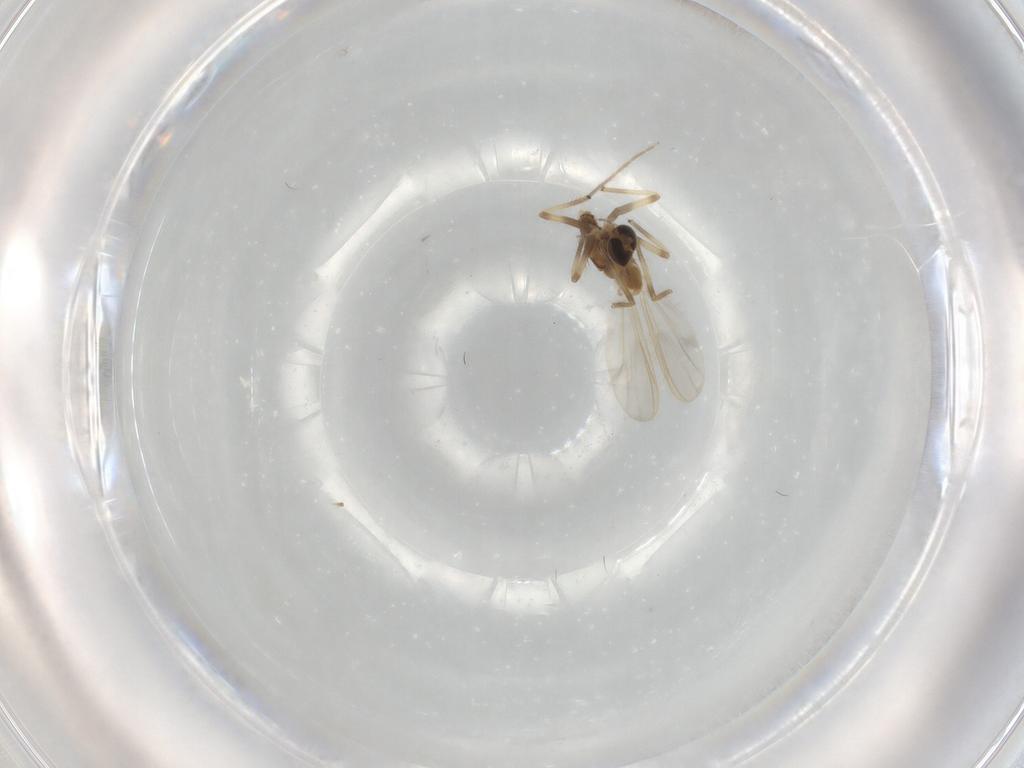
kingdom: Animalia
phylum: Arthropoda
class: Insecta
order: Diptera
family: Chironomidae
